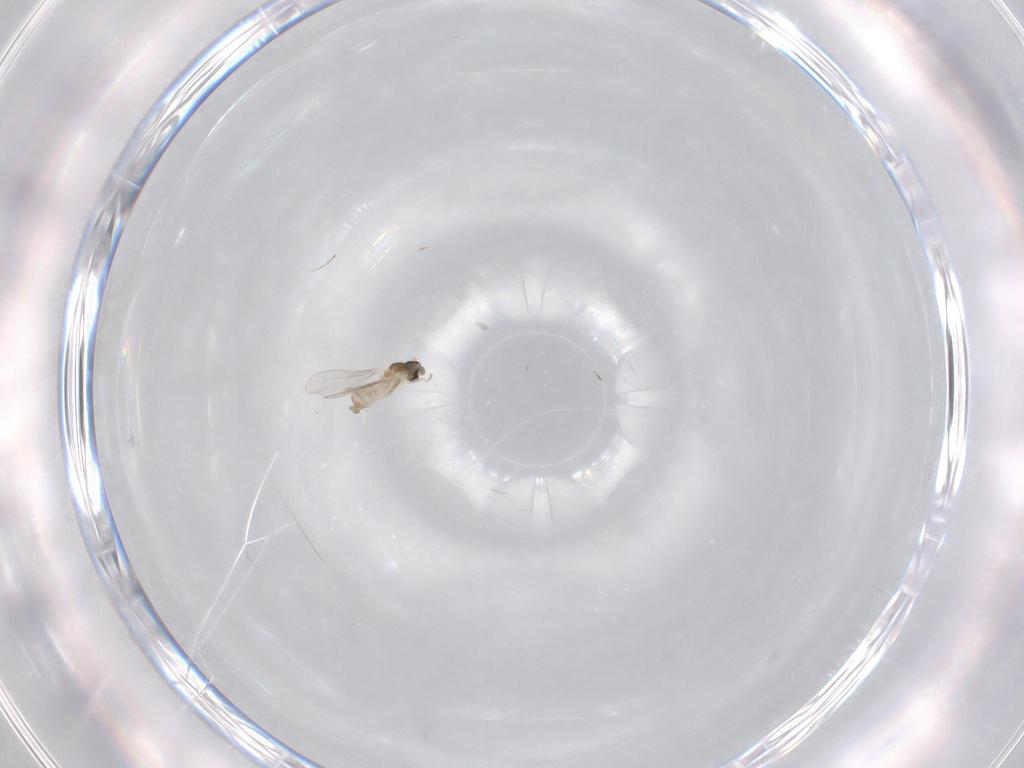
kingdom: Animalia
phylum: Arthropoda
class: Insecta
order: Diptera
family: Cecidomyiidae
